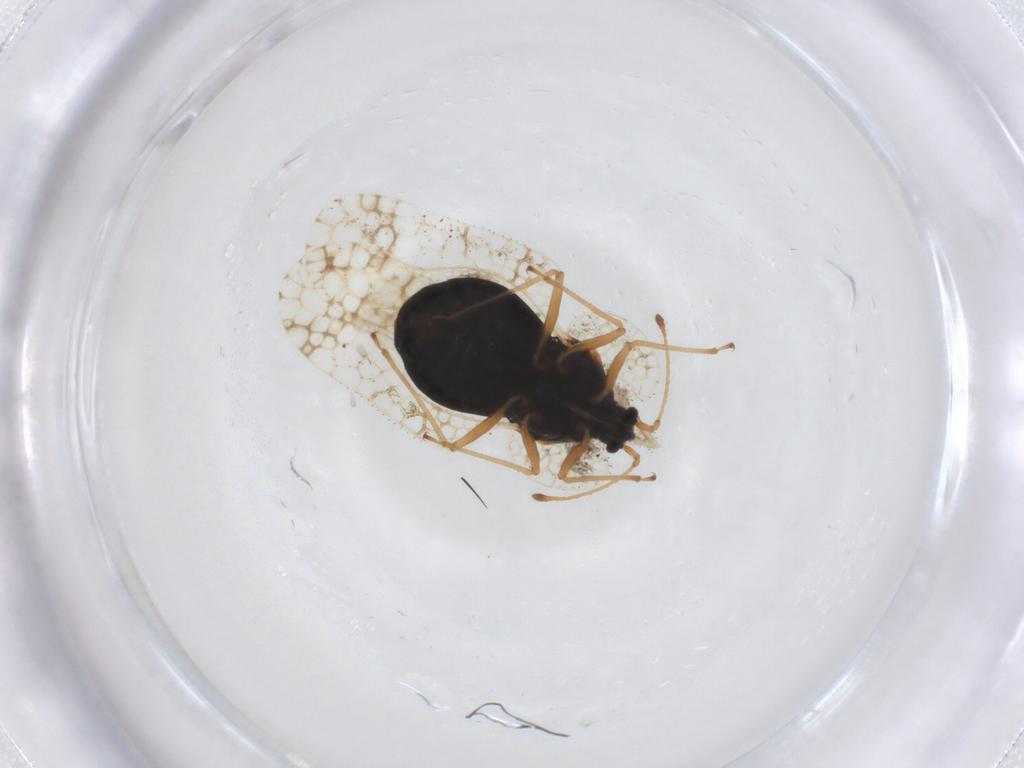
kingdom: Animalia
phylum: Arthropoda
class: Insecta
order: Hemiptera
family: Tingidae
